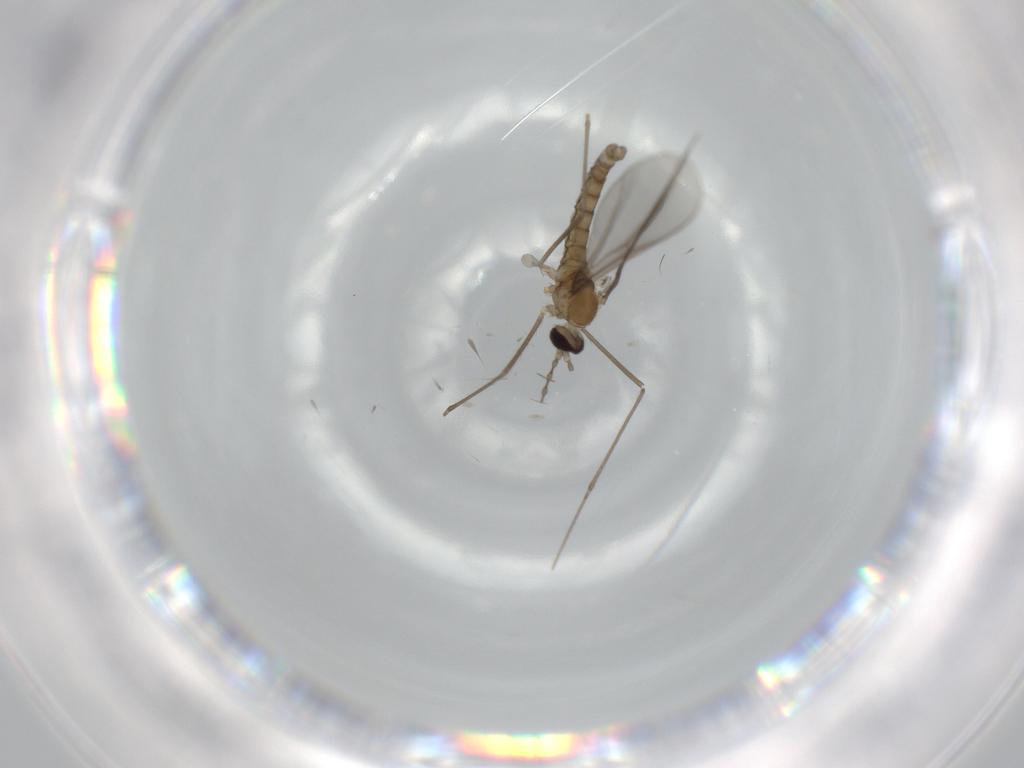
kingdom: Animalia
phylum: Arthropoda
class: Insecta
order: Diptera
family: Cecidomyiidae
